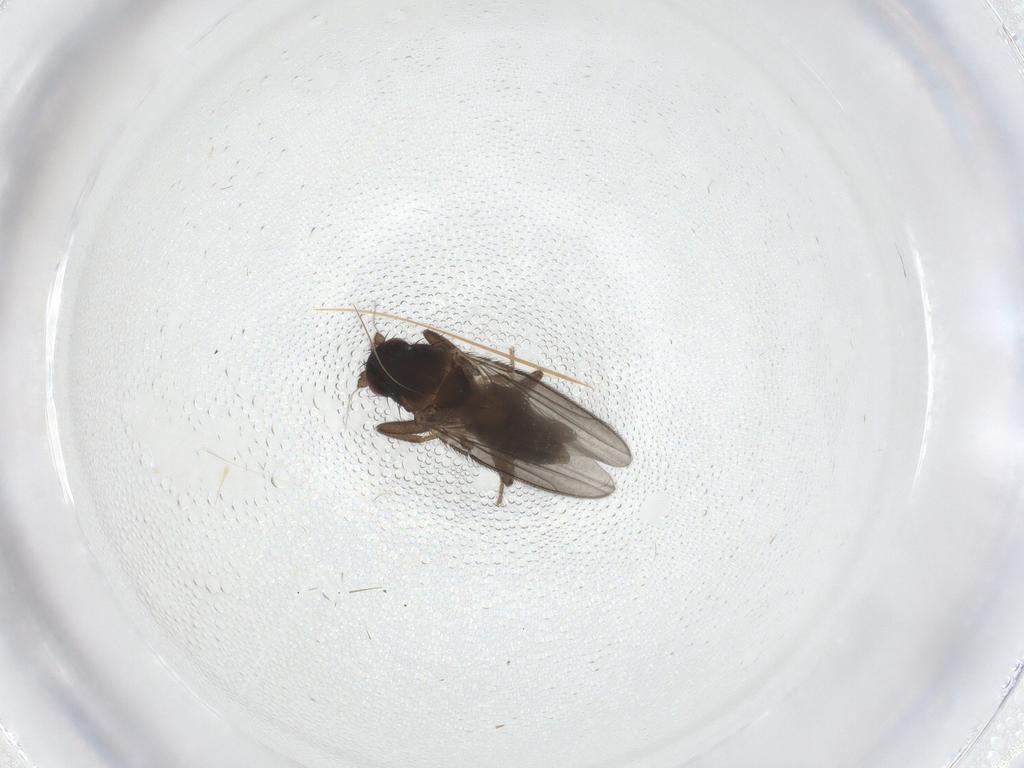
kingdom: Animalia
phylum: Arthropoda
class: Insecta
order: Diptera
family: Sphaeroceridae
